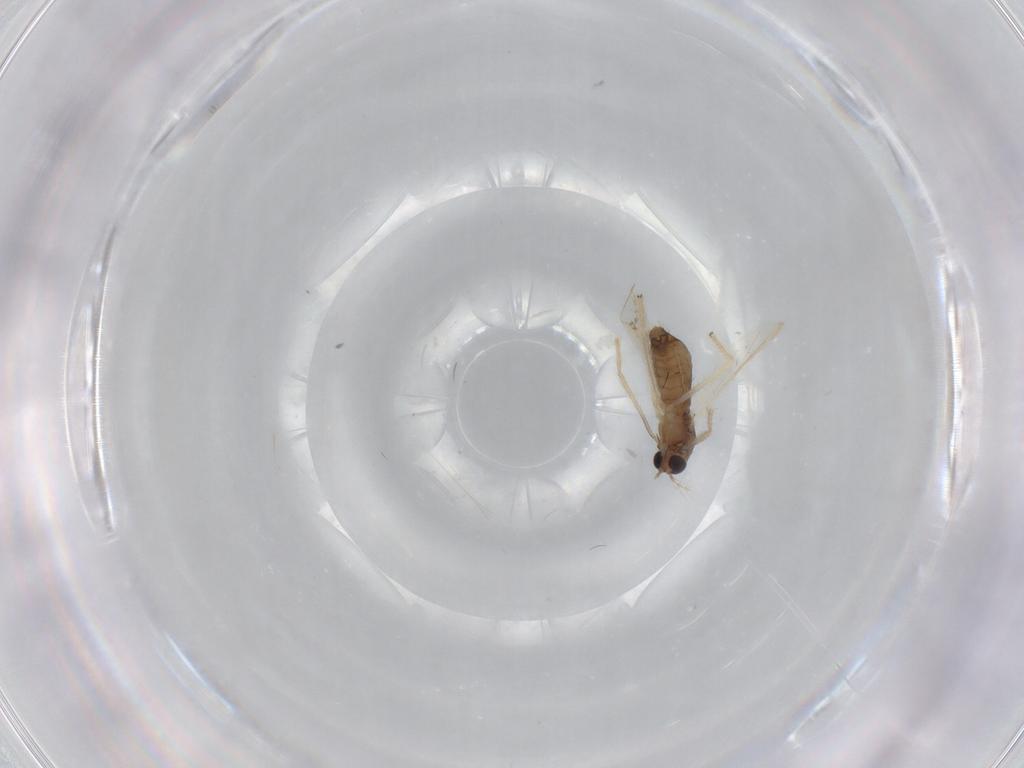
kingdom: Animalia
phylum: Arthropoda
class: Insecta
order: Diptera
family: Chironomidae
